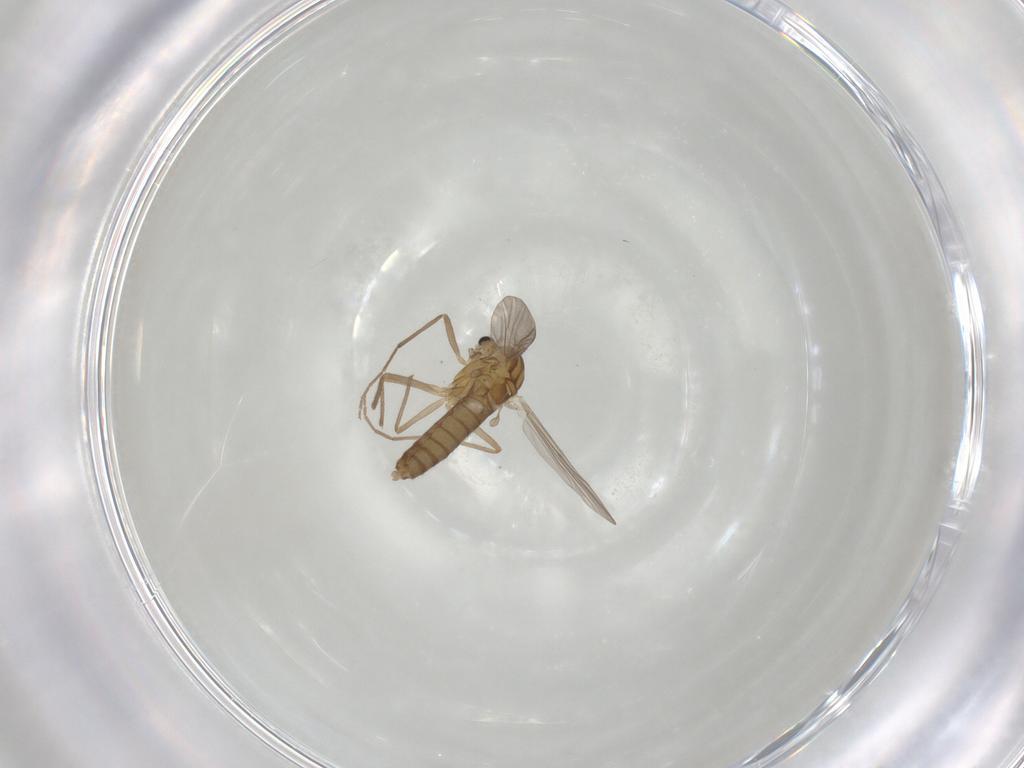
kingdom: Animalia
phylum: Arthropoda
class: Insecta
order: Diptera
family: Chironomidae
